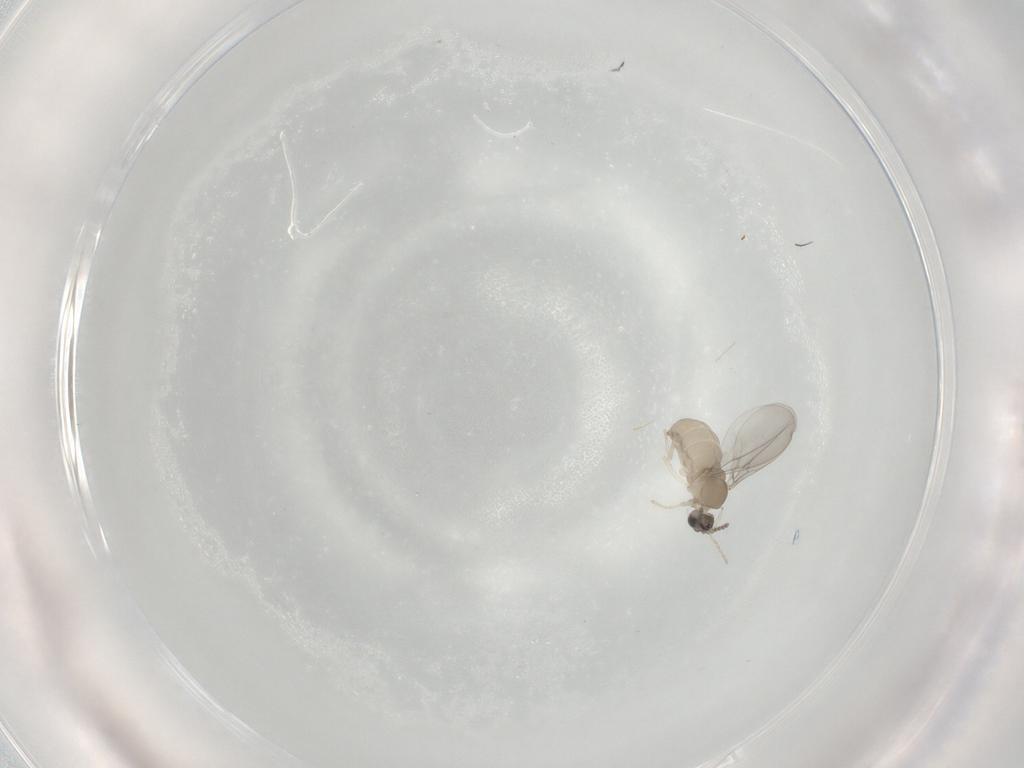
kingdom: Animalia
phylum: Arthropoda
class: Insecta
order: Diptera
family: Cecidomyiidae
